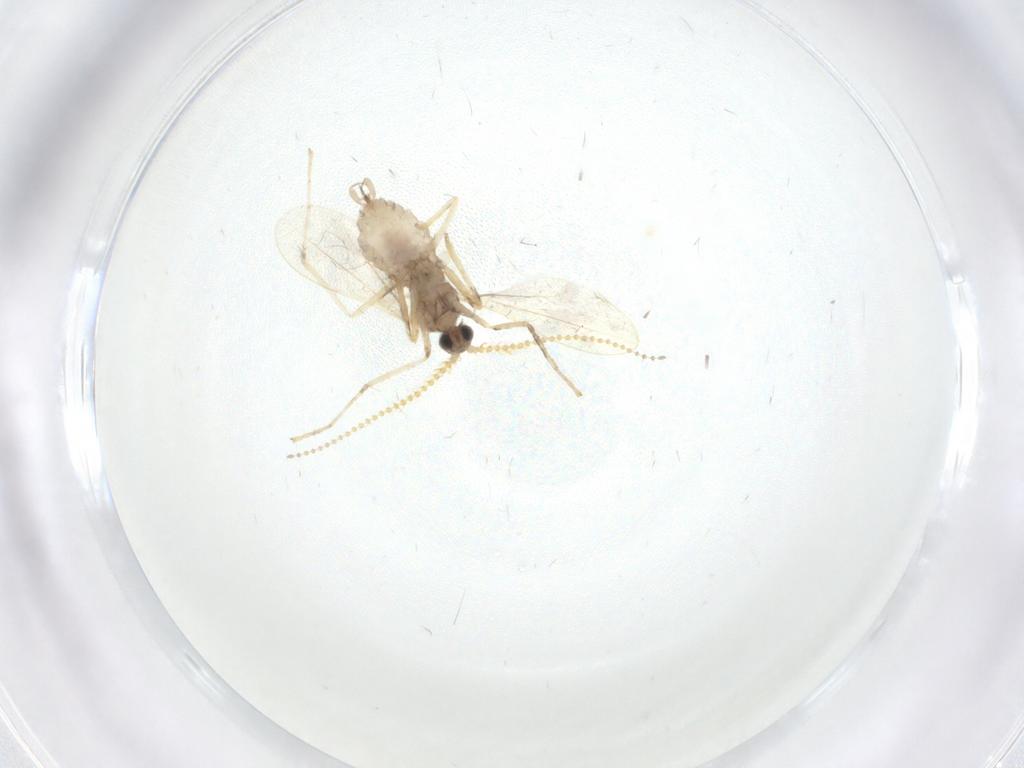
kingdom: Animalia
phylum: Arthropoda
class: Insecta
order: Diptera
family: Cecidomyiidae
